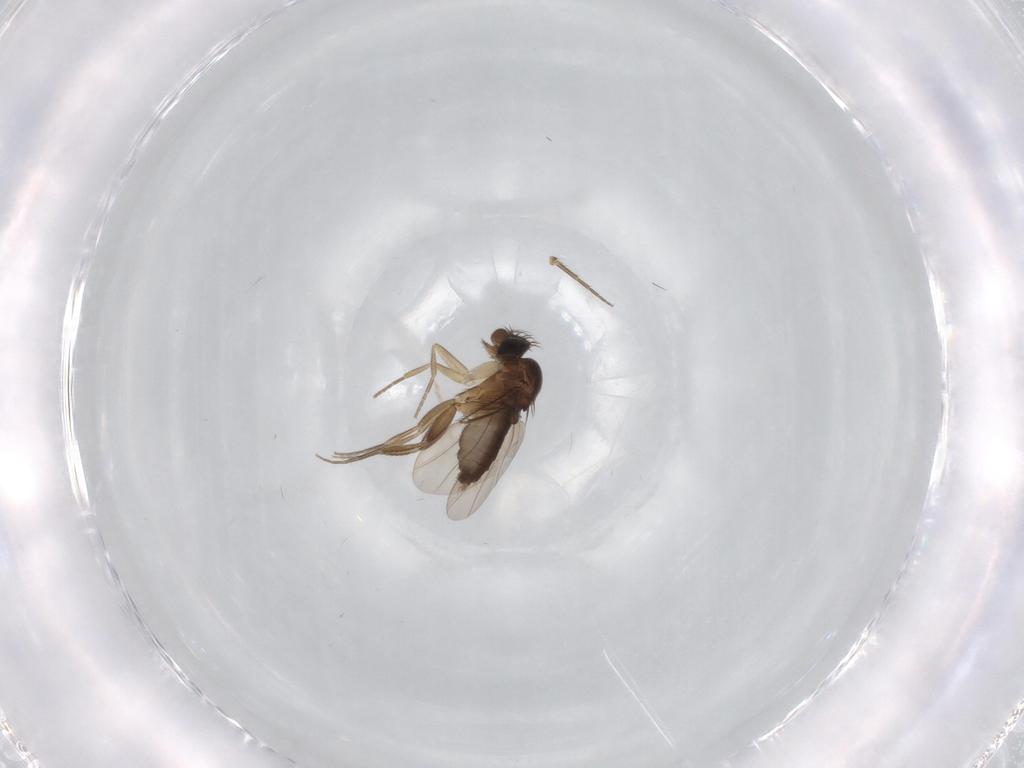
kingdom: Animalia
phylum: Arthropoda
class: Insecta
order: Diptera
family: Phoridae
